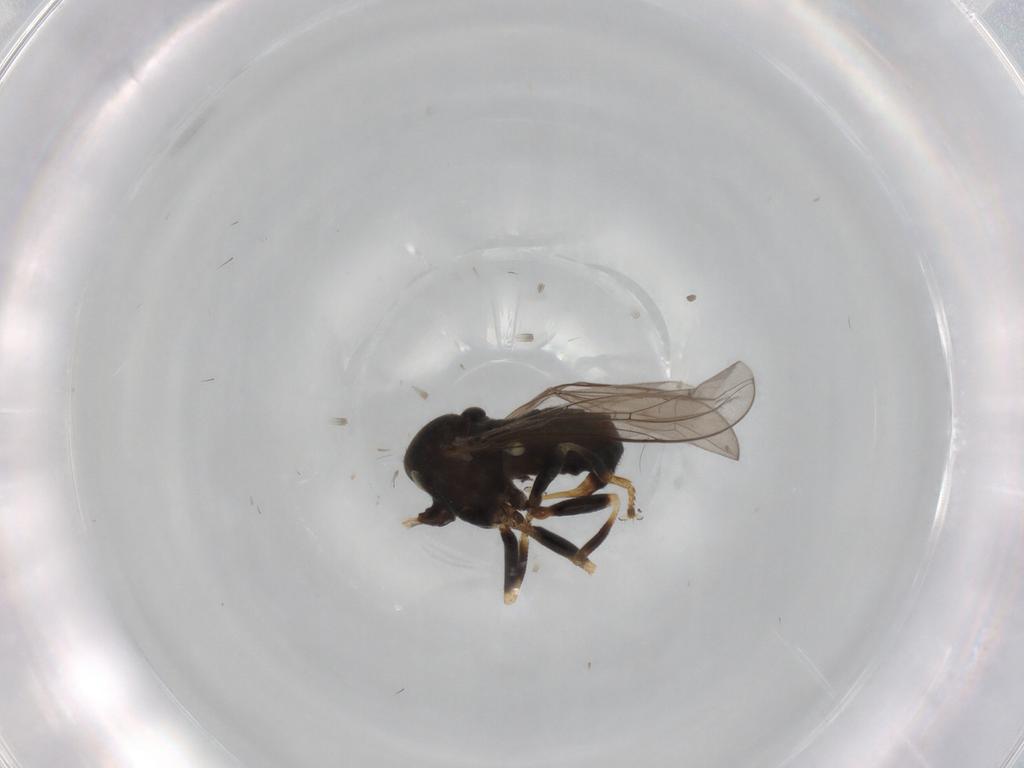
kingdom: Animalia
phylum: Arthropoda
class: Insecta
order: Diptera
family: Pipunculidae
